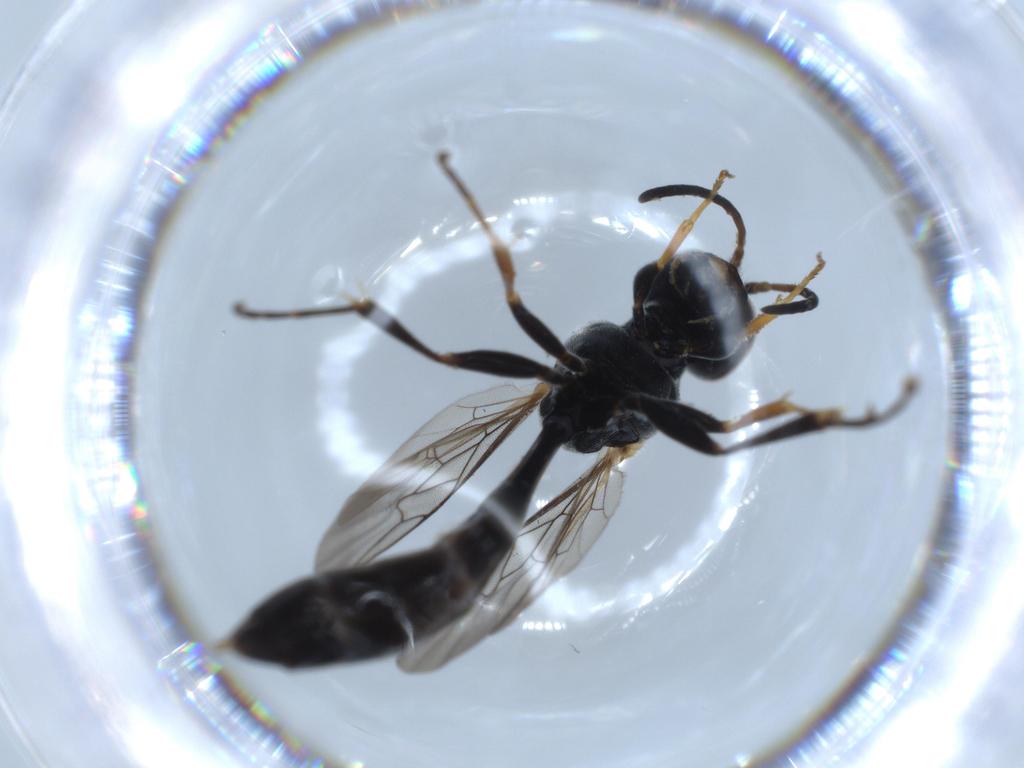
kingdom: Animalia
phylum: Arthropoda
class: Insecta
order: Hymenoptera
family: Crabronidae
